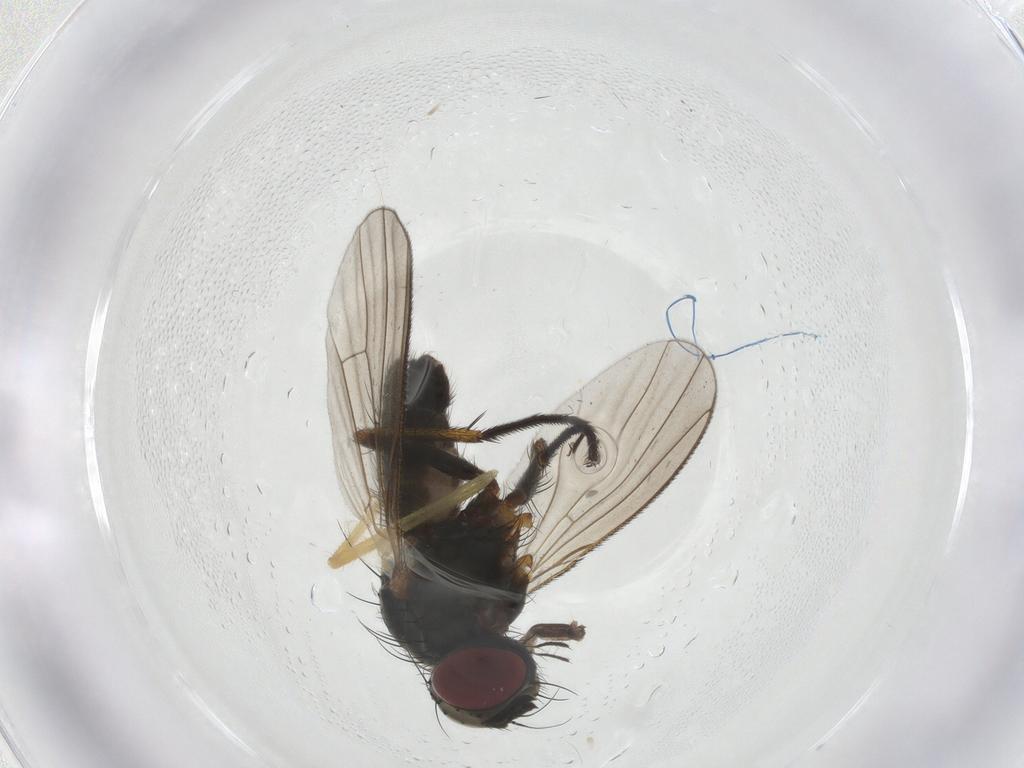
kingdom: Animalia
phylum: Arthropoda
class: Insecta
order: Diptera
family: Muscidae
